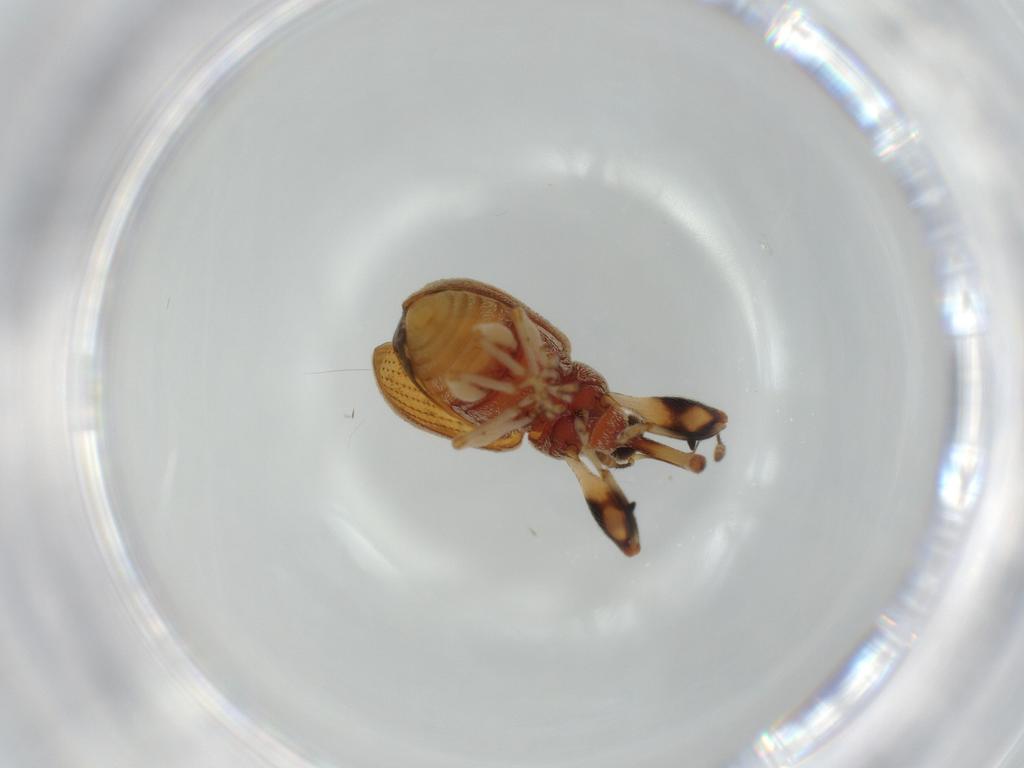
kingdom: Animalia
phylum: Arthropoda
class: Insecta
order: Coleoptera
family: Curculionidae
